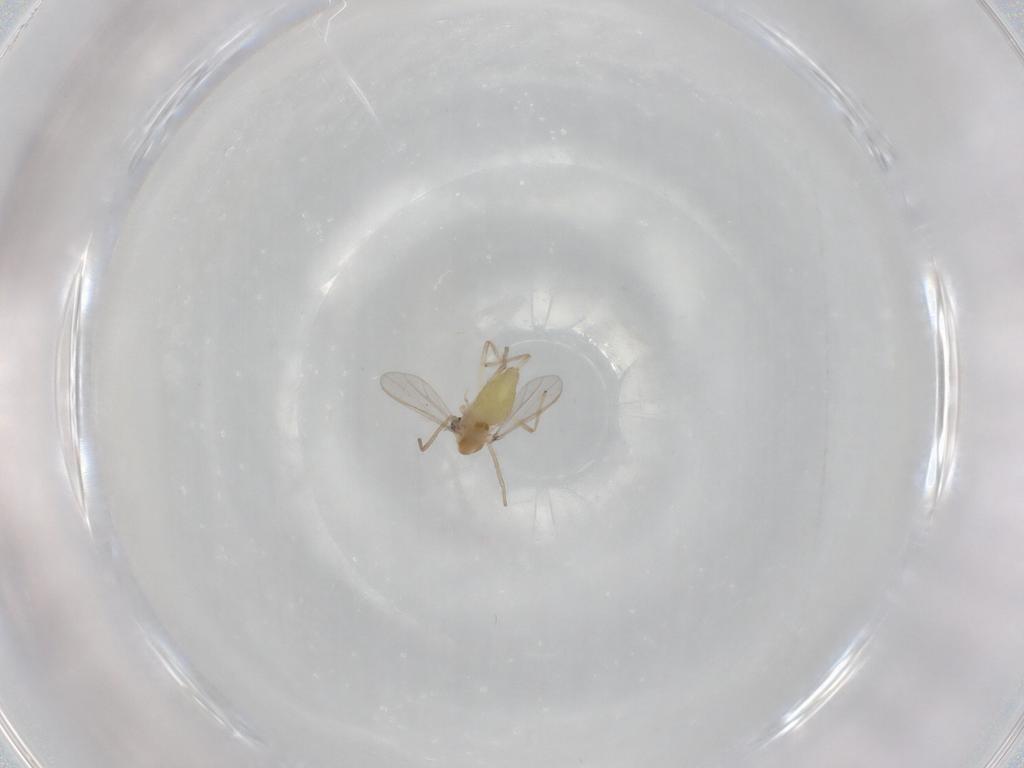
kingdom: Animalia
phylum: Arthropoda
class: Insecta
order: Diptera
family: Chironomidae
